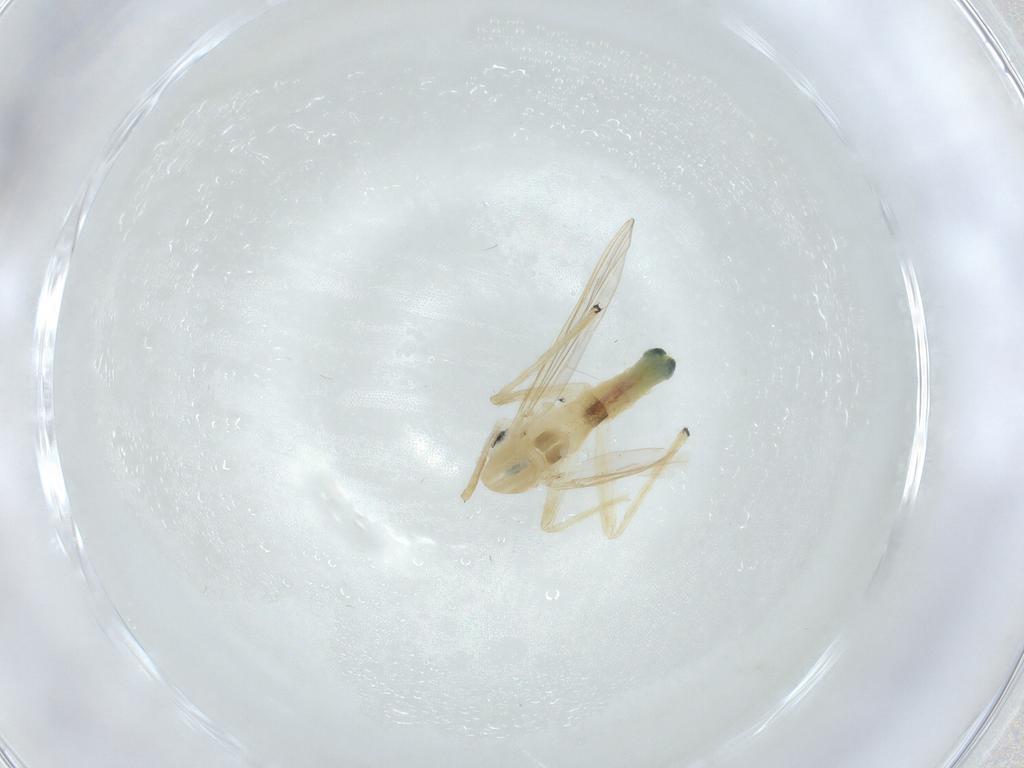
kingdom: Animalia
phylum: Arthropoda
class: Insecta
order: Diptera
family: Chironomidae
